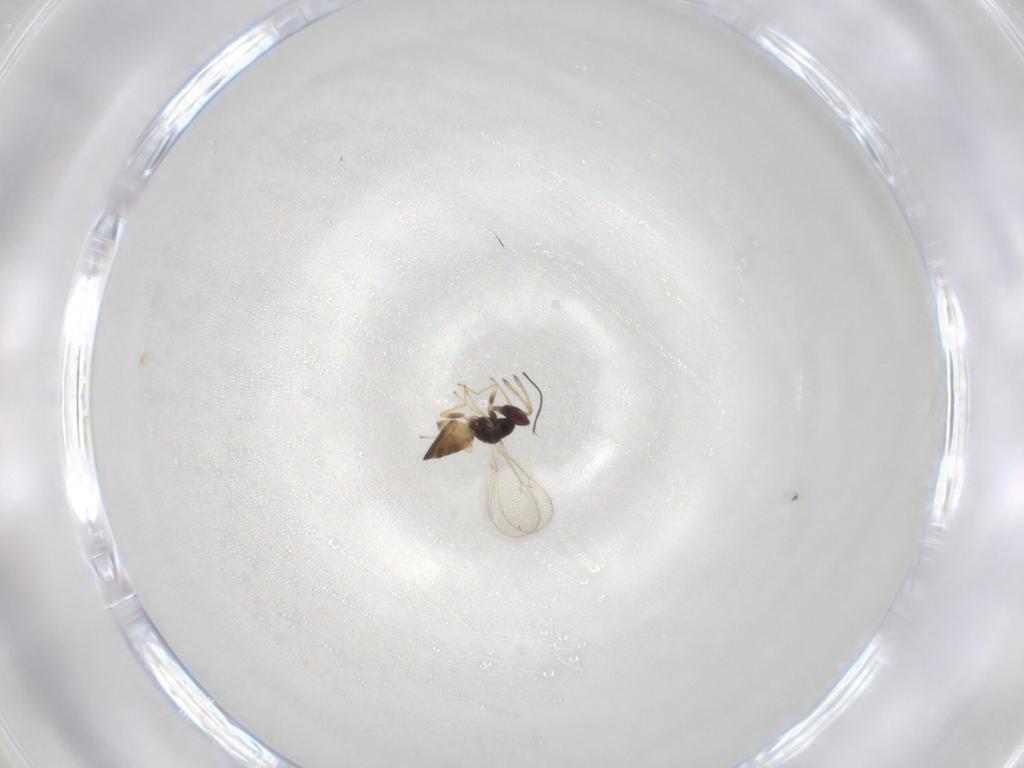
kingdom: Animalia
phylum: Arthropoda
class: Insecta
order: Hymenoptera
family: Eulophidae
